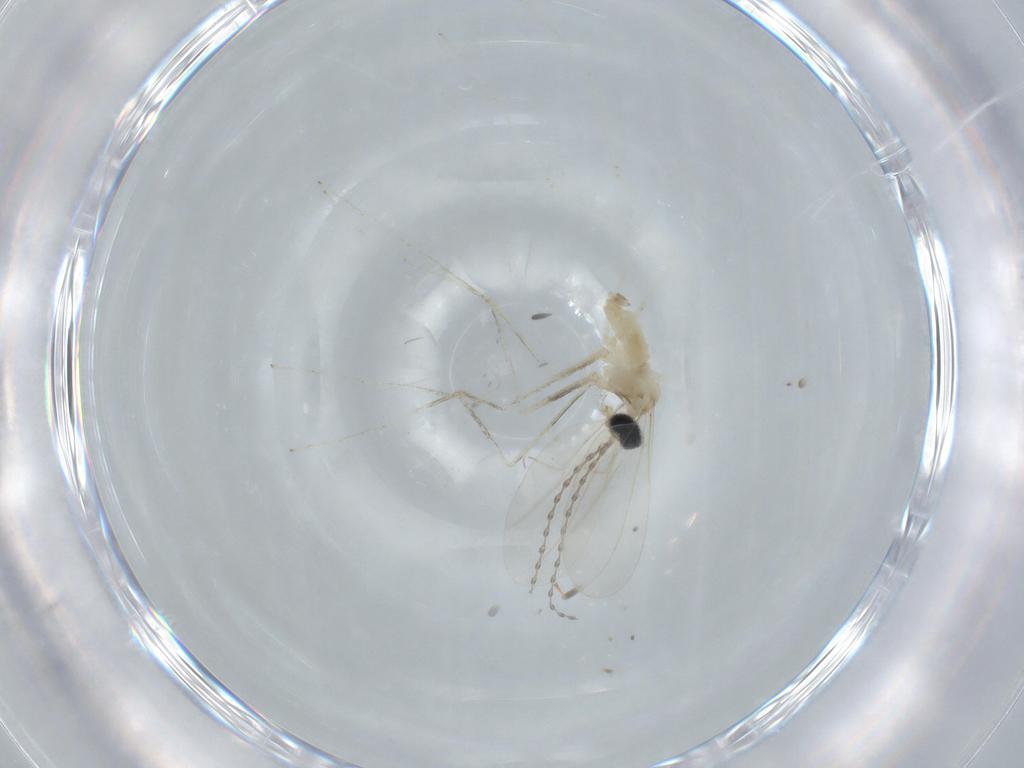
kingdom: Animalia
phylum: Arthropoda
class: Insecta
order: Diptera
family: Cecidomyiidae
